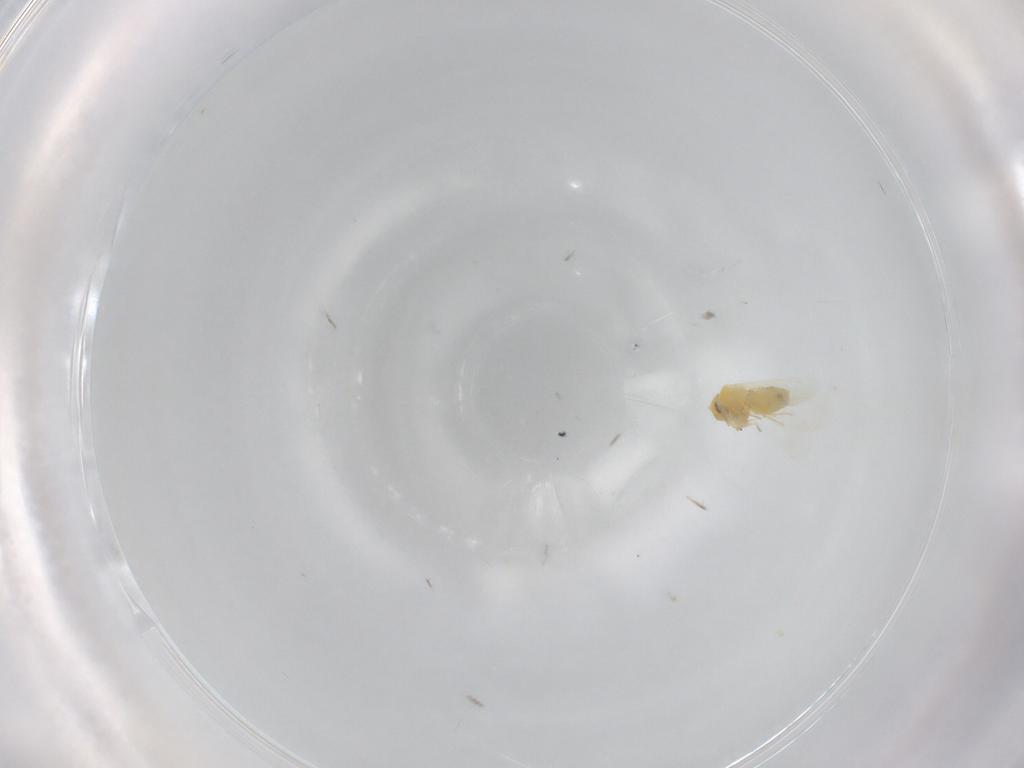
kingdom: Animalia
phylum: Arthropoda
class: Insecta
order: Hemiptera
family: Aleyrodidae
